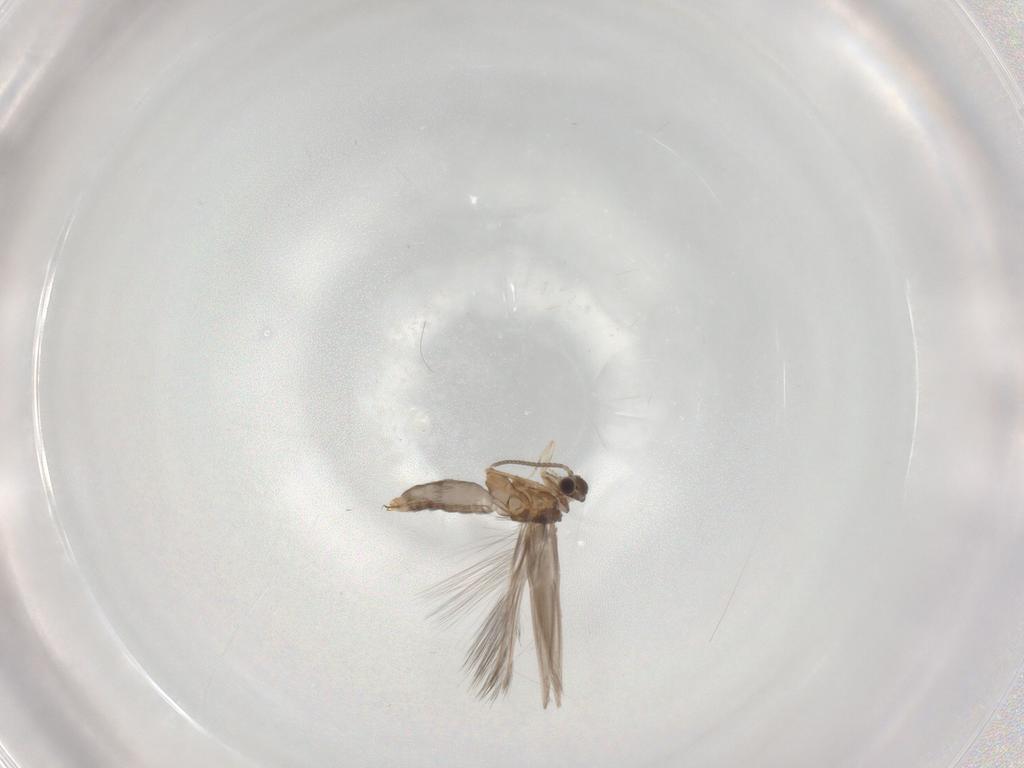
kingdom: Animalia
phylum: Arthropoda
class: Insecta
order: Trichoptera
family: Hydroptilidae
